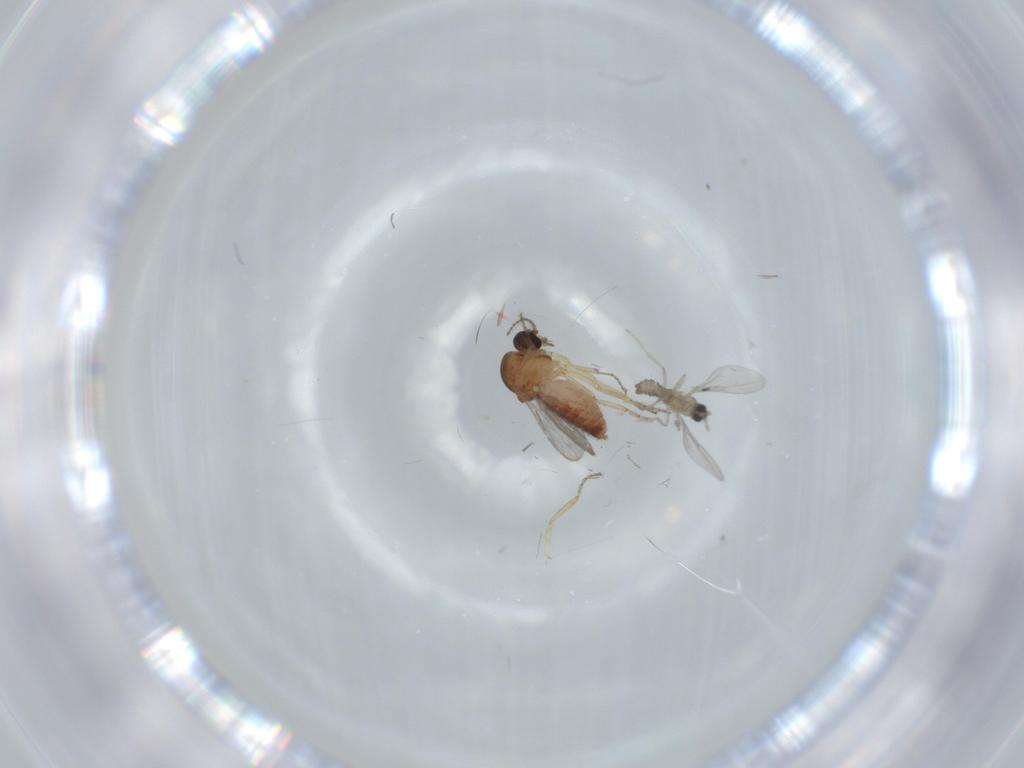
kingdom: Animalia
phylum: Arthropoda
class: Insecta
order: Diptera
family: Ceratopogonidae
